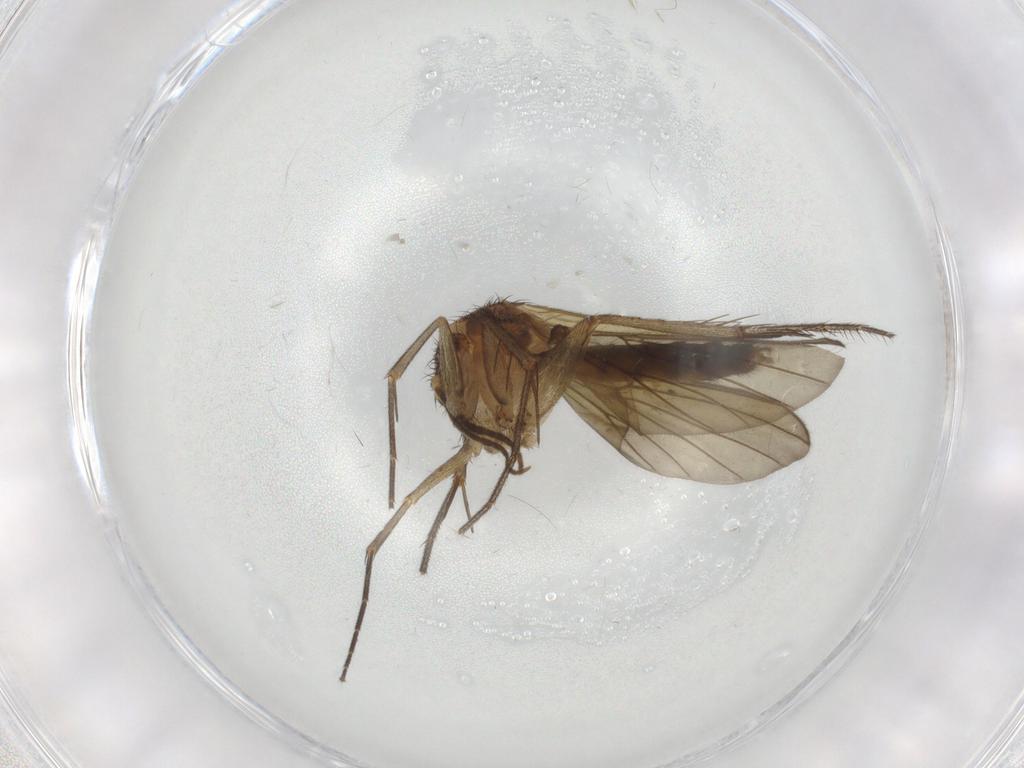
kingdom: Animalia
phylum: Arthropoda
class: Insecta
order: Diptera
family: Mycetophilidae
